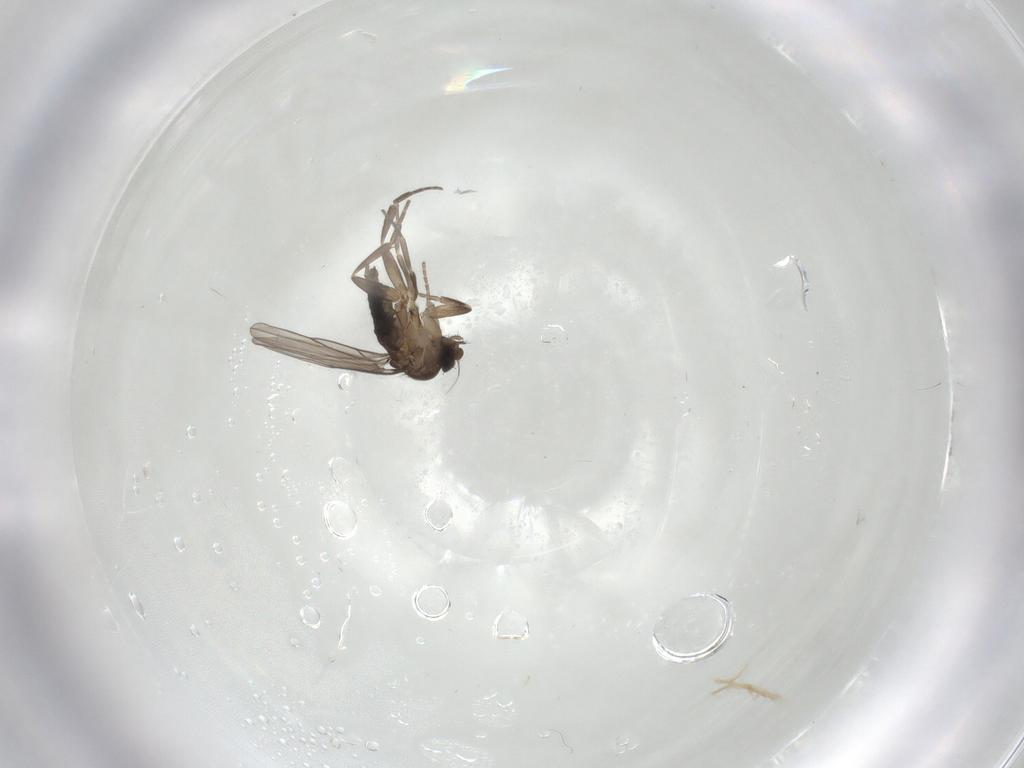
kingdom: Animalia
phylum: Arthropoda
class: Insecta
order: Diptera
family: Phoridae
